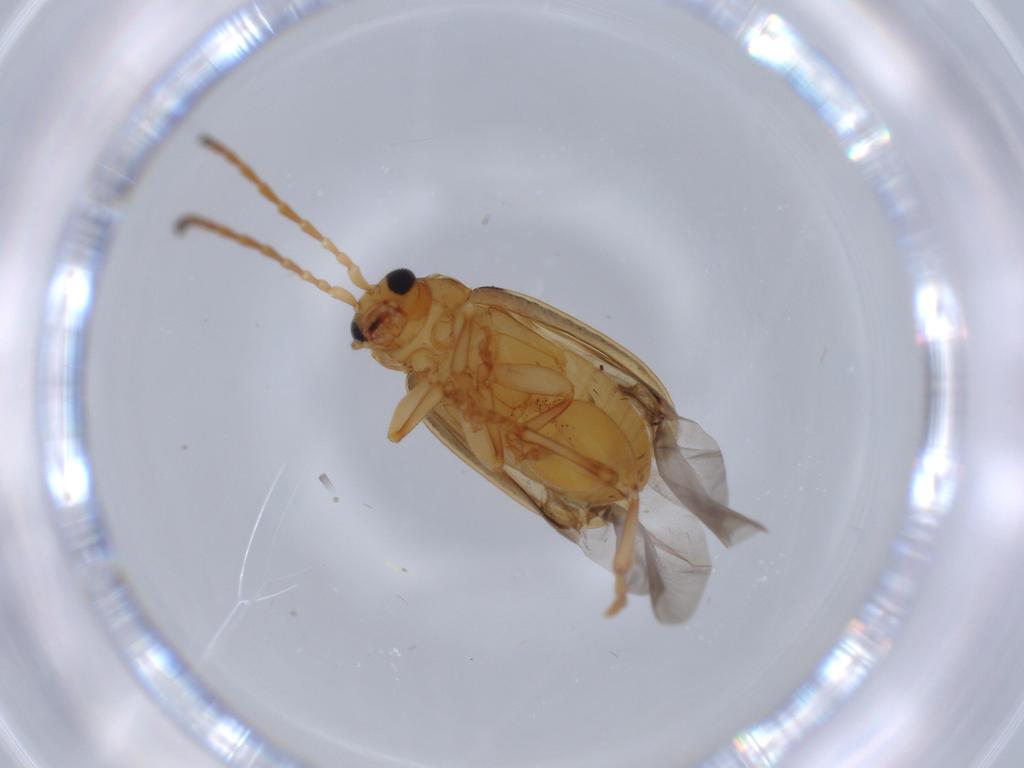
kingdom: Animalia
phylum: Arthropoda
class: Insecta
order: Coleoptera
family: Chrysomelidae
